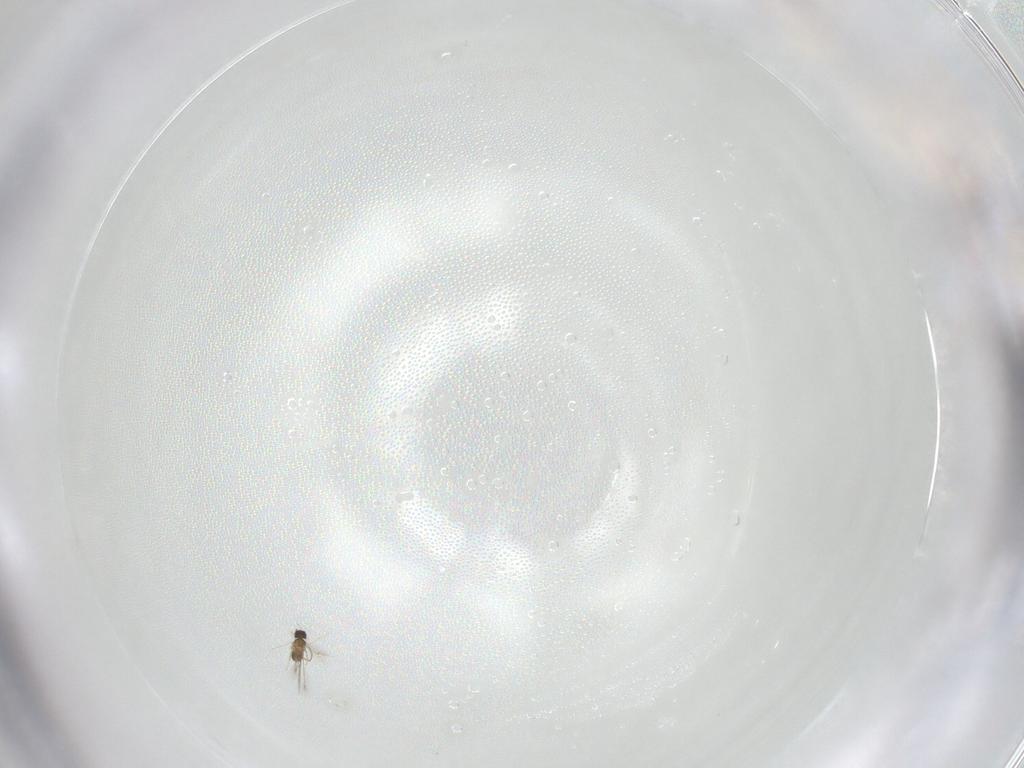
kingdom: Animalia
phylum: Arthropoda
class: Insecta
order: Hymenoptera
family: Mymaridae
